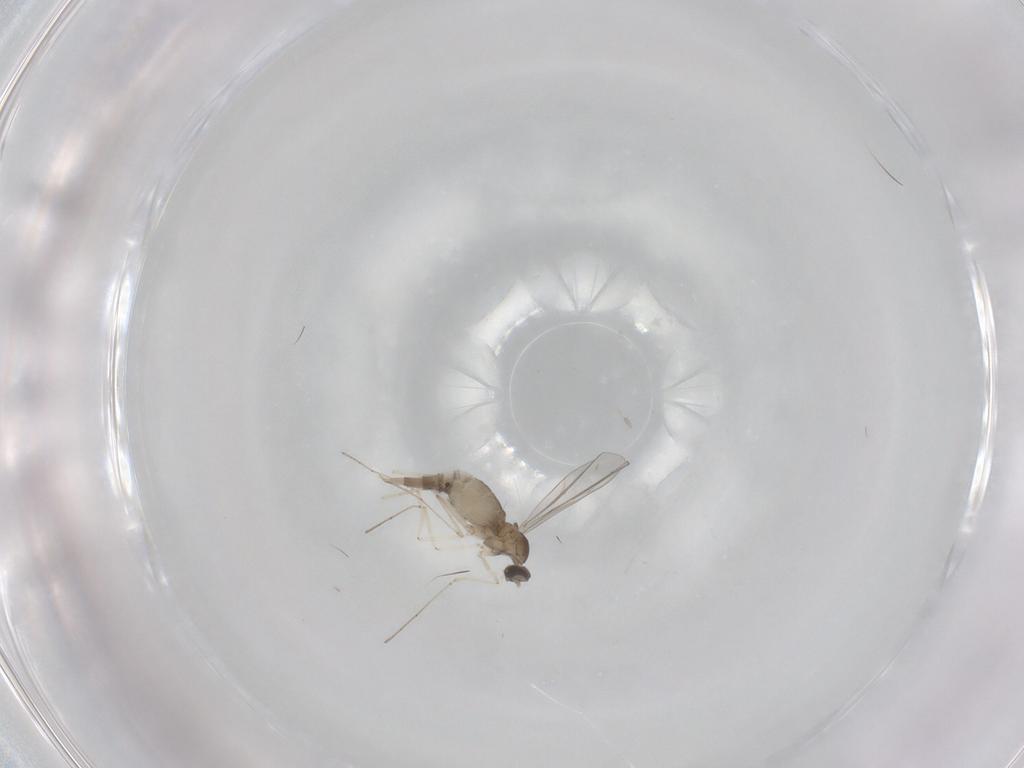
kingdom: Animalia
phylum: Arthropoda
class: Insecta
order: Diptera
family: Cecidomyiidae
